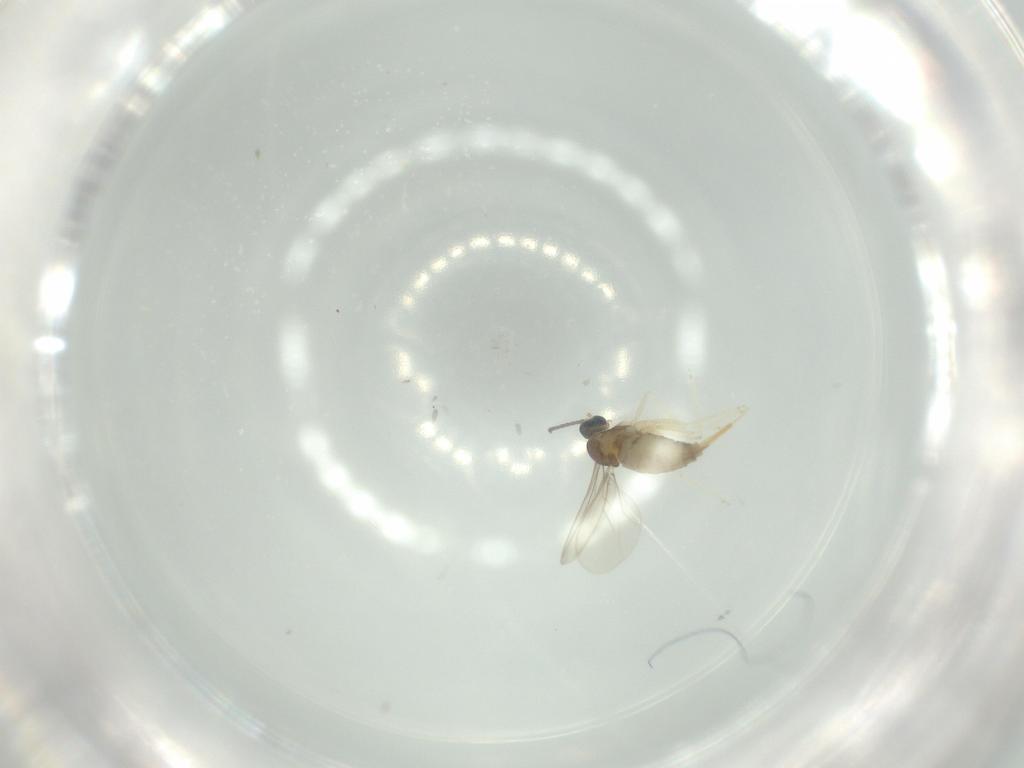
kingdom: Animalia
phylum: Arthropoda
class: Insecta
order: Diptera
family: Cecidomyiidae
